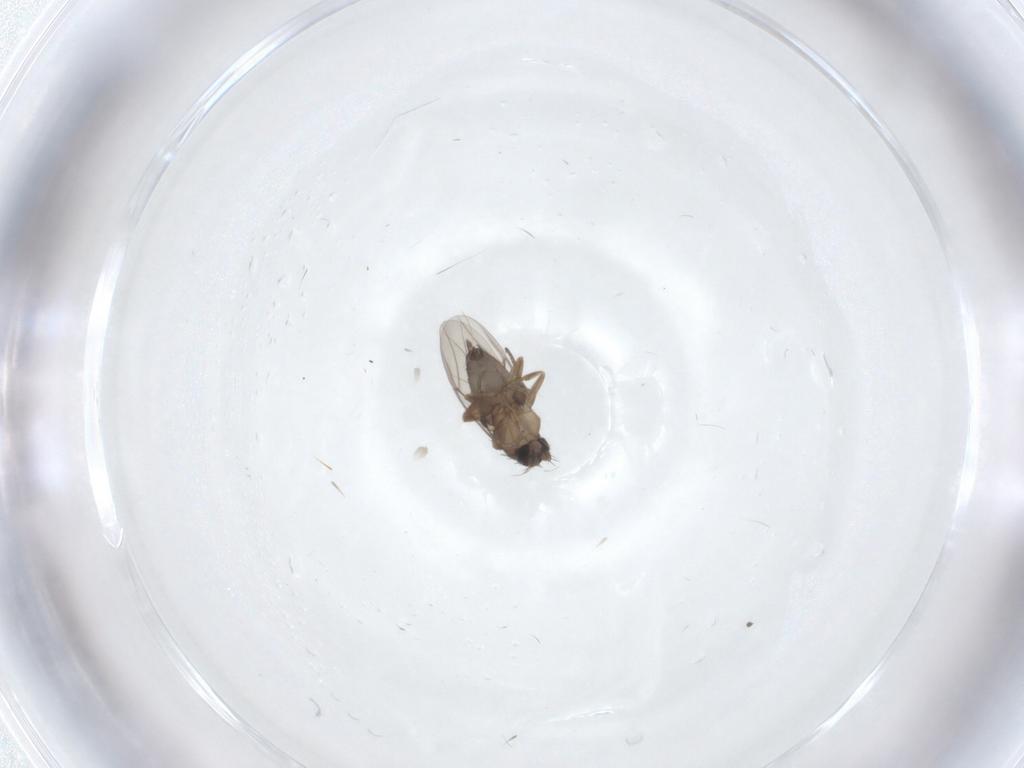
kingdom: Animalia
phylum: Arthropoda
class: Insecta
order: Diptera
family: Phoridae
